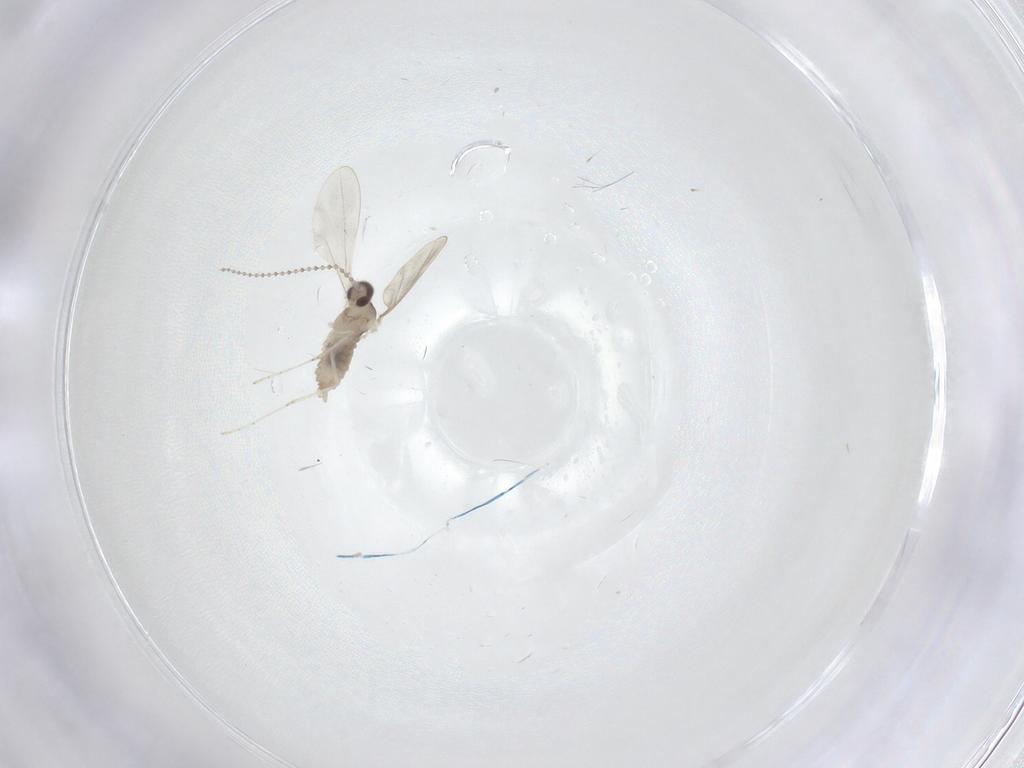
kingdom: Animalia
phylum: Arthropoda
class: Insecta
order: Diptera
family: Cecidomyiidae
